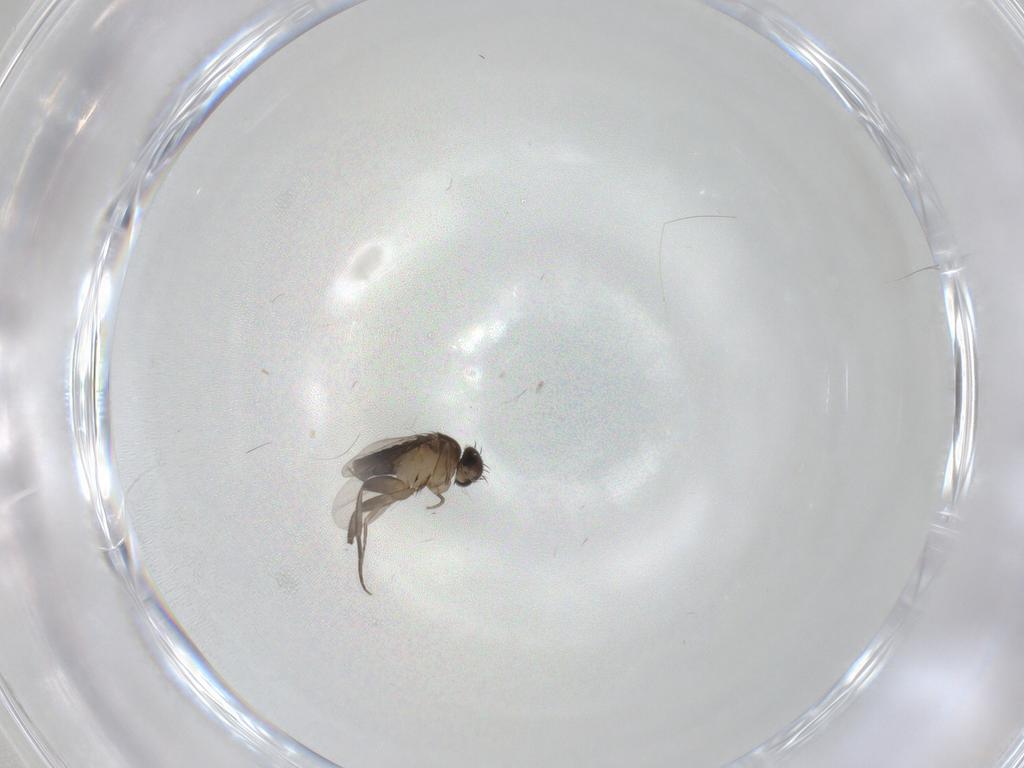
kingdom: Animalia
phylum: Arthropoda
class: Insecta
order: Diptera
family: Phoridae
